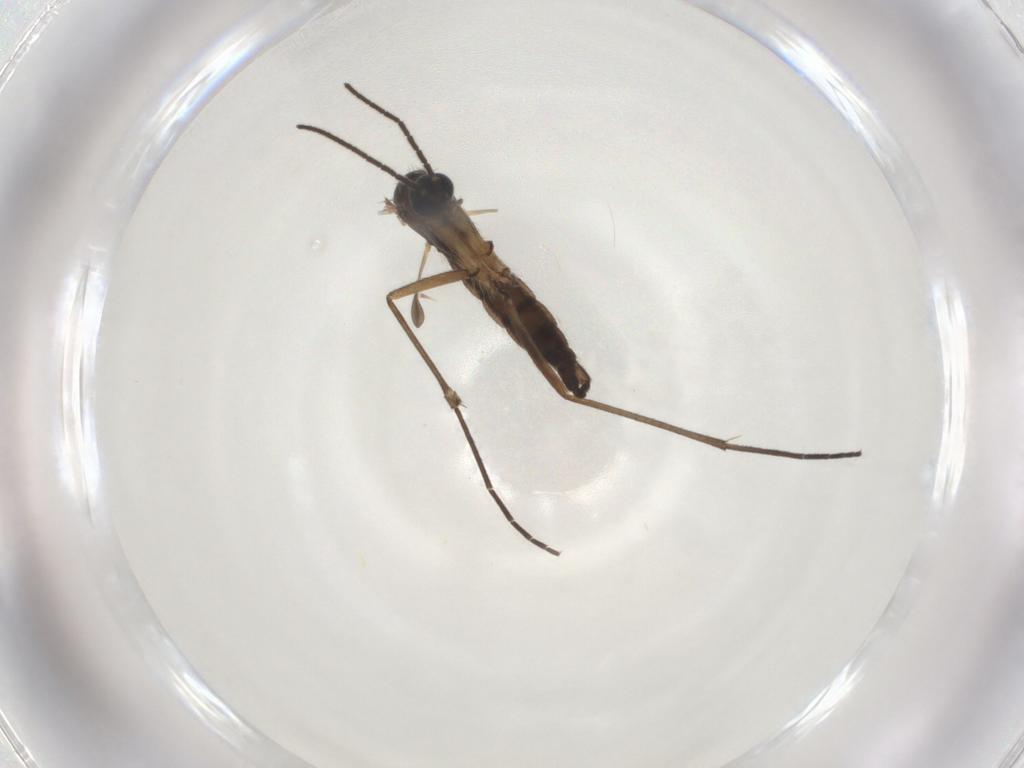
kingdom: Animalia
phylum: Arthropoda
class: Insecta
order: Diptera
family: Sciaridae
